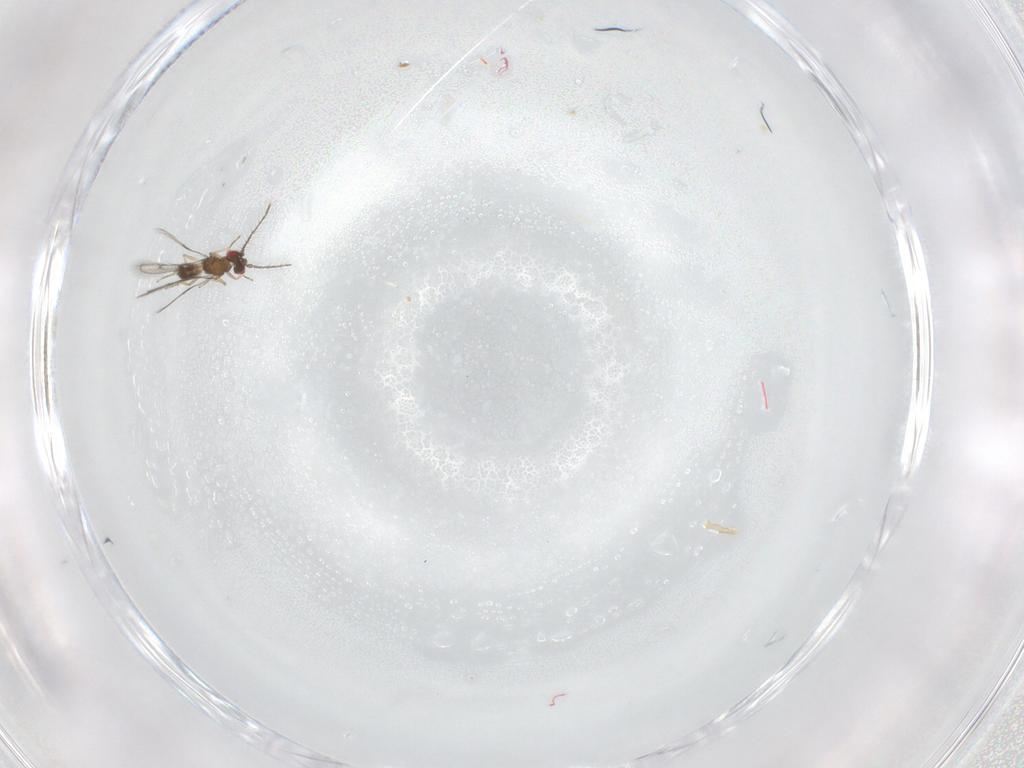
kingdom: Animalia
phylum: Arthropoda
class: Insecta
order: Hymenoptera
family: Eulophidae
